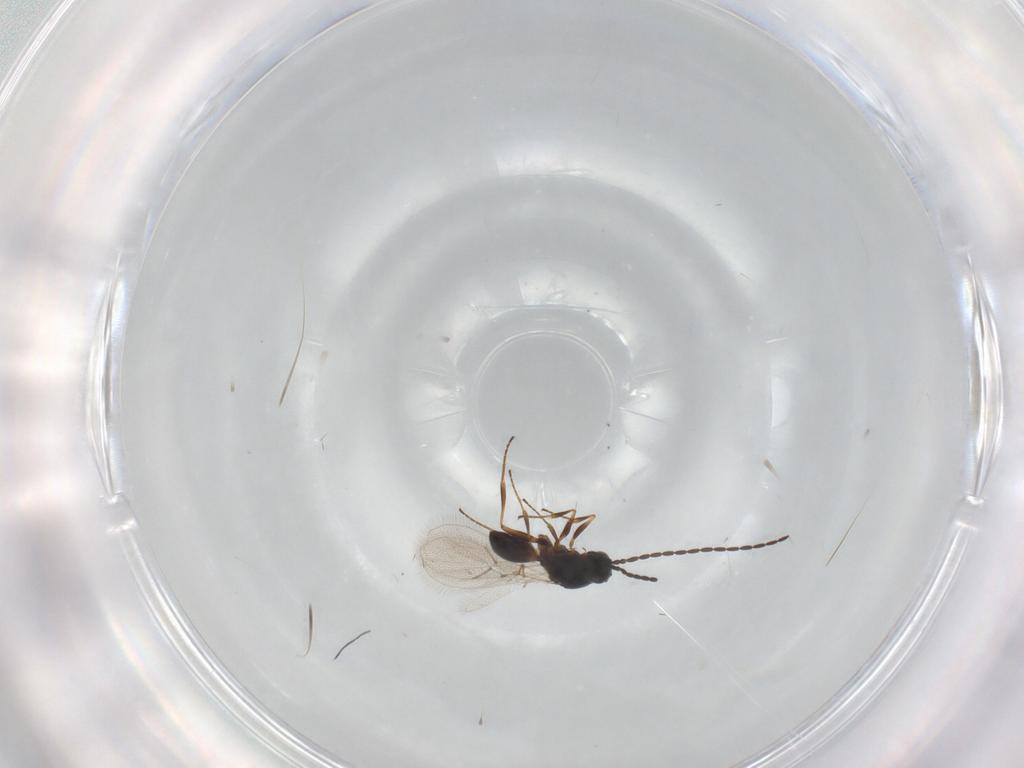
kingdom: Animalia
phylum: Arthropoda
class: Insecta
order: Hymenoptera
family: Figitidae
